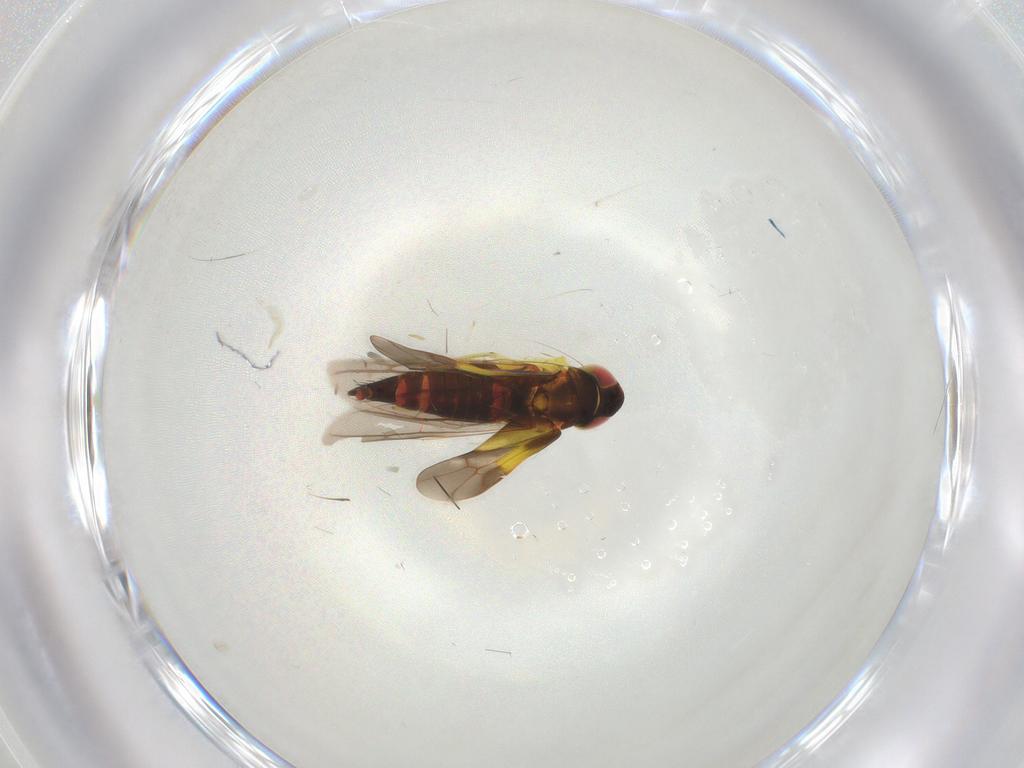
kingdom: Animalia
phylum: Arthropoda
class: Insecta
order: Hemiptera
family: Cicadellidae
